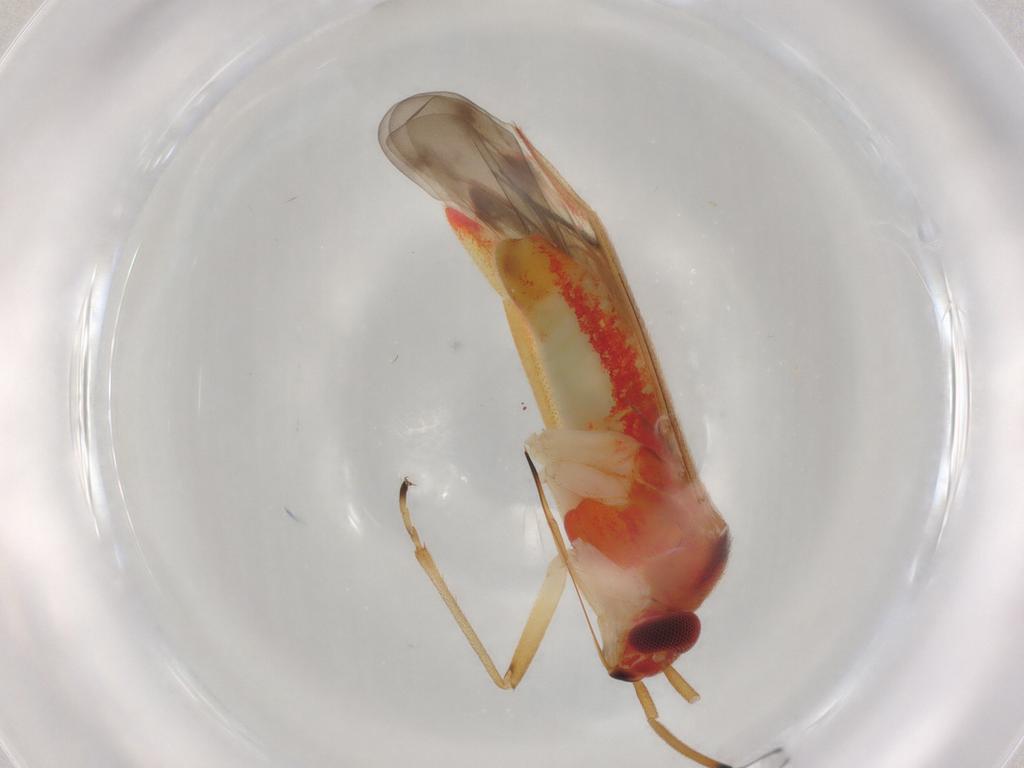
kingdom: Animalia
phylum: Arthropoda
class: Insecta
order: Hemiptera
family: Miridae
